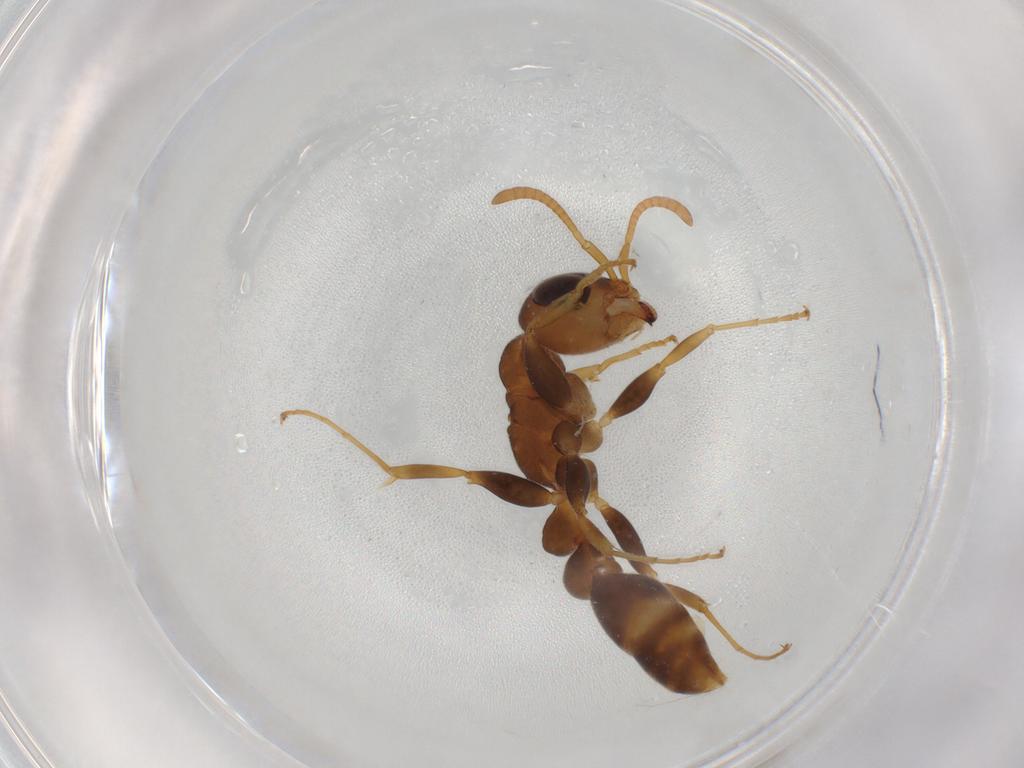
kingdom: Animalia
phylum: Arthropoda
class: Insecta
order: Hymenoptera
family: Formicidae
